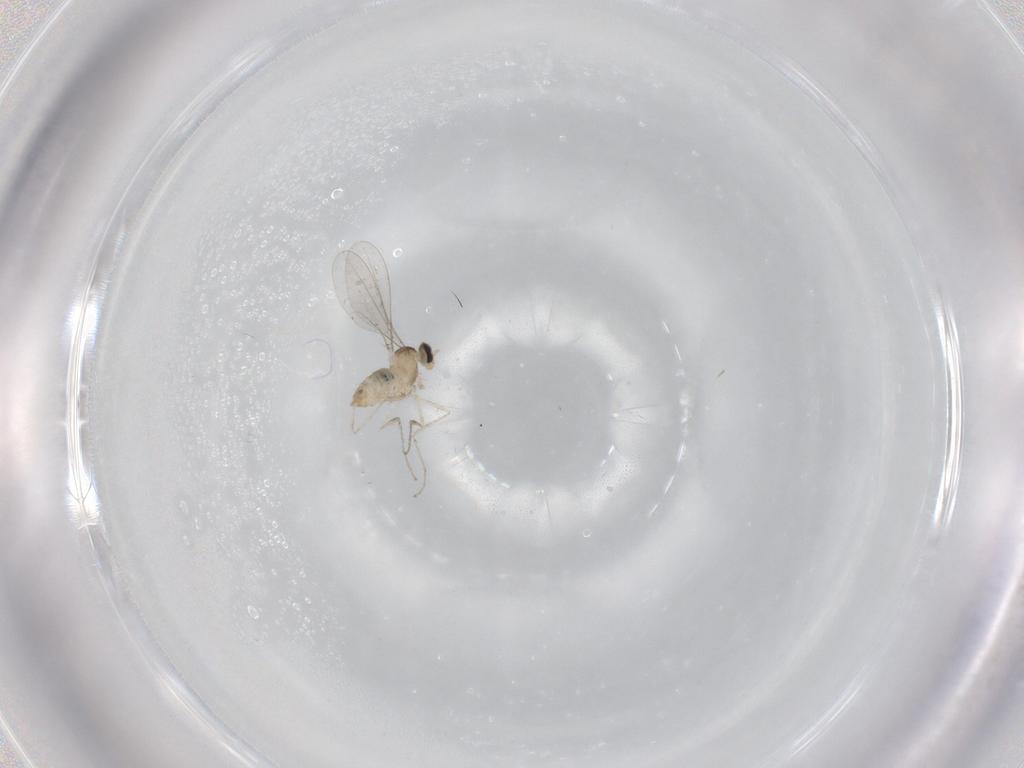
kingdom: Animalia
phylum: Arthropoda
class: Insecta
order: Diptera
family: Cecidomyiidae
